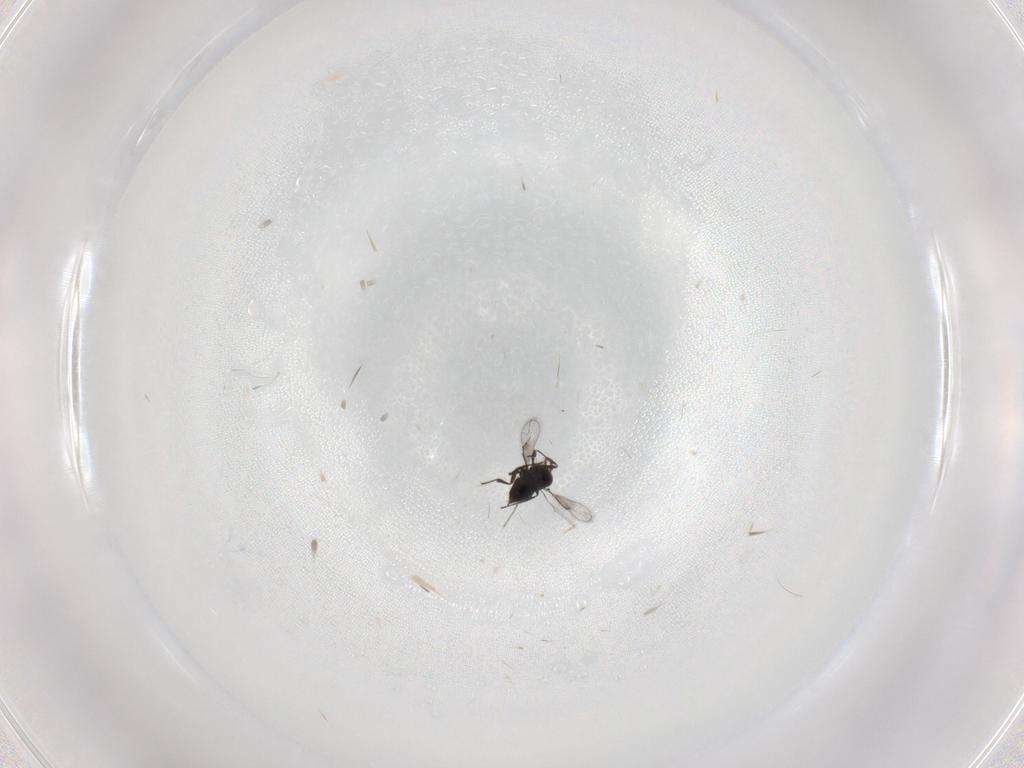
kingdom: Animalia
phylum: Arthropoda
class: Insecta
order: Hymenoptera
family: Trichogrammatidae
